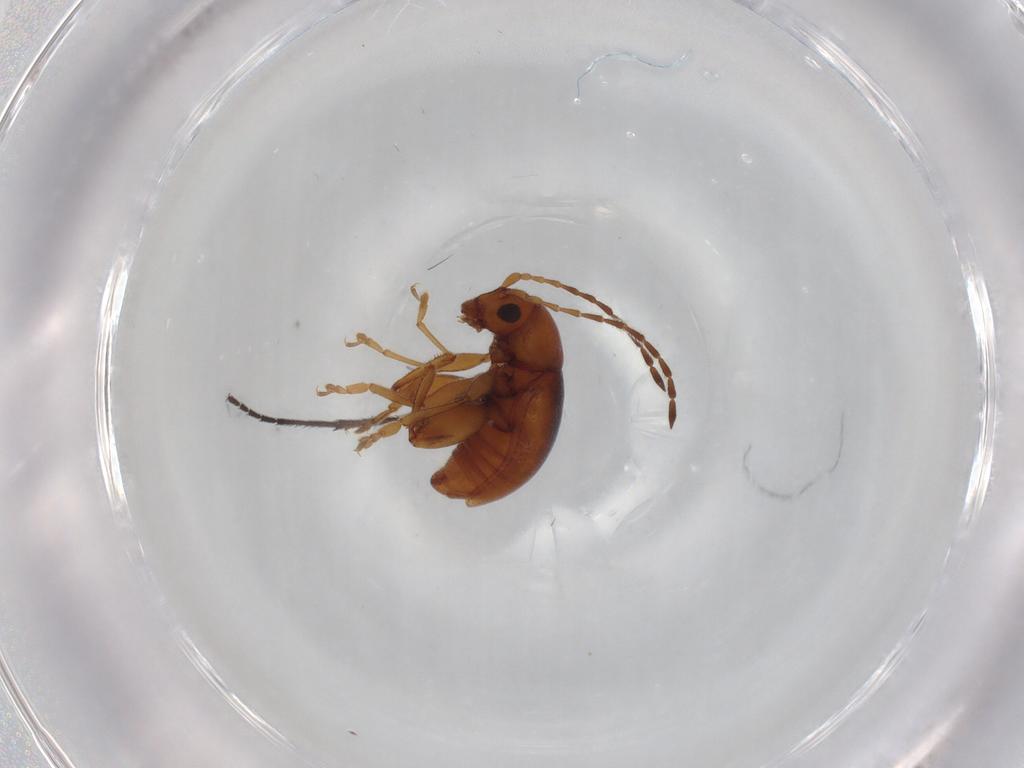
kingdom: Animalia
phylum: Arthropoda
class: Insecta
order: Coleoptera
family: Chrysomelidae
